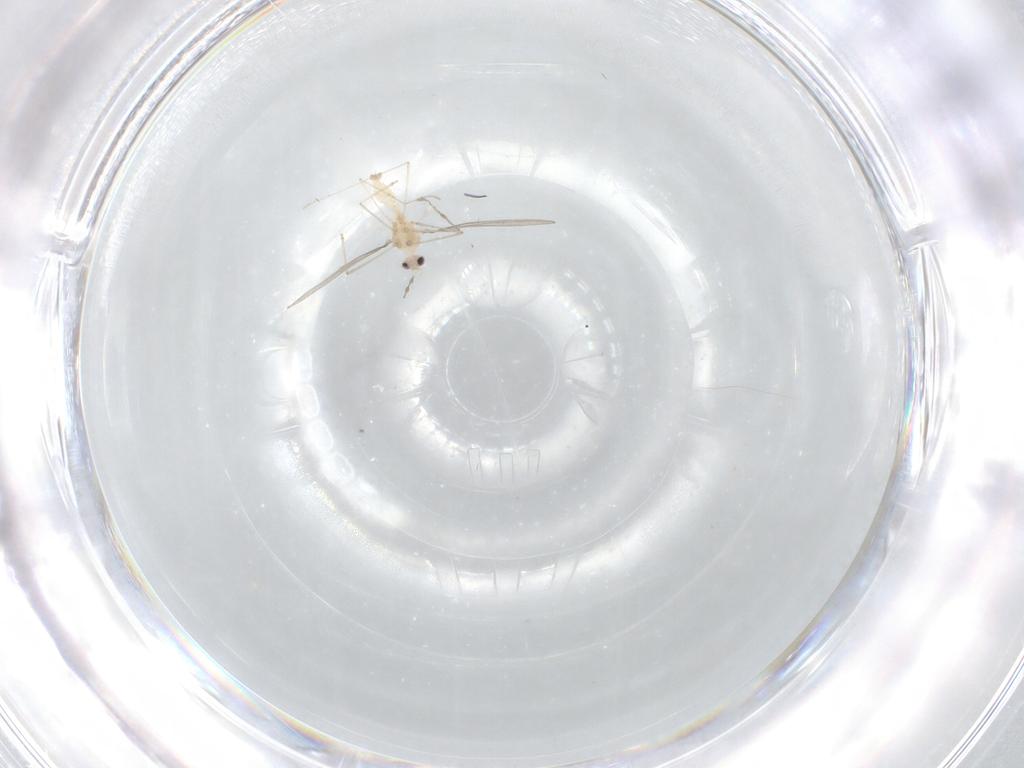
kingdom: Animalia
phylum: Arthropoda
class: Insecta
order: Diptera
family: Cecidomyiidae
